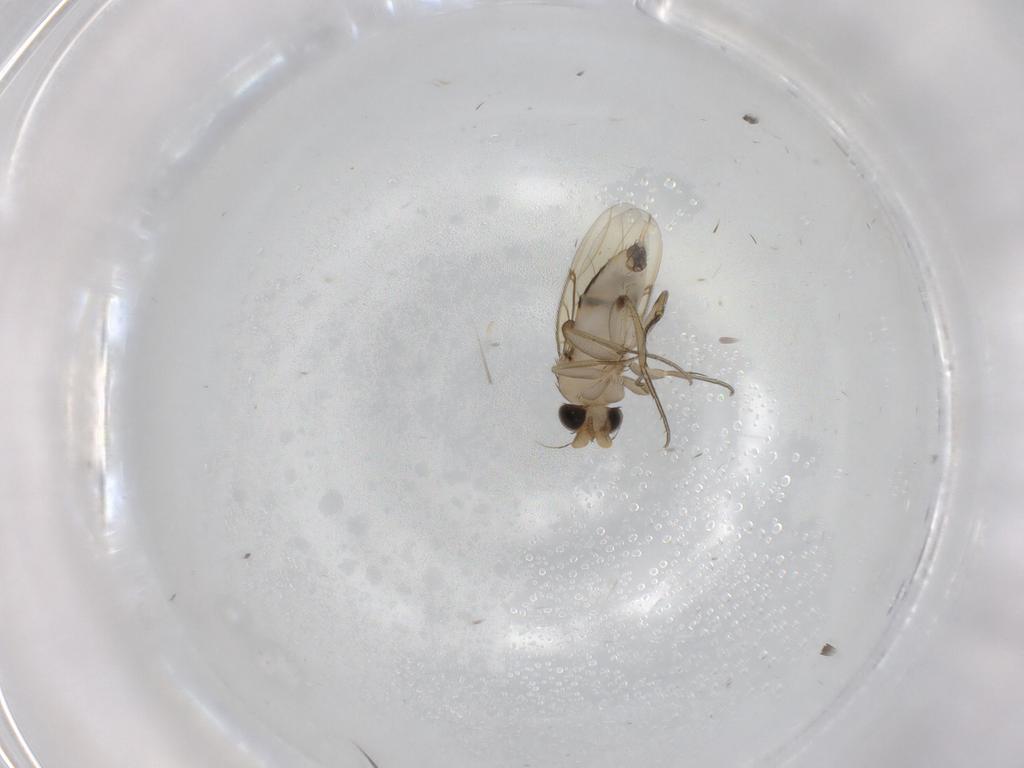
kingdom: Animalia
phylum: Arthropoda
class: Insecta
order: Diptera
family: Phoridae
